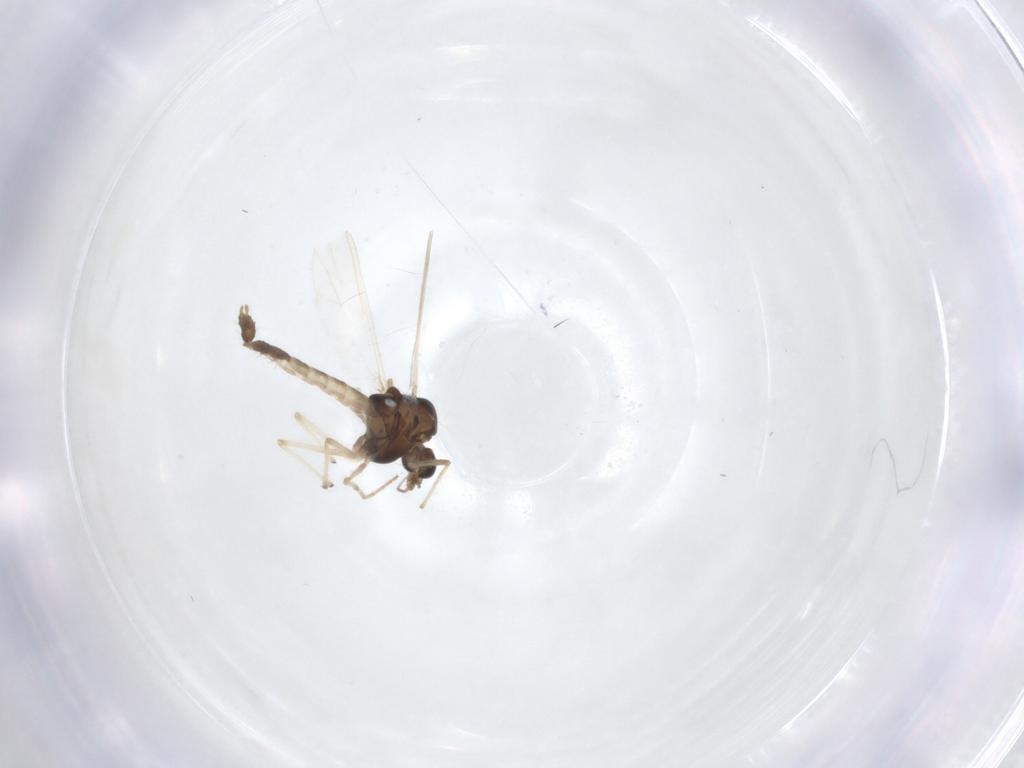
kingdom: Animalia
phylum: Arthropoda
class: Insecta
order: Diptera
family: Chironomidae
